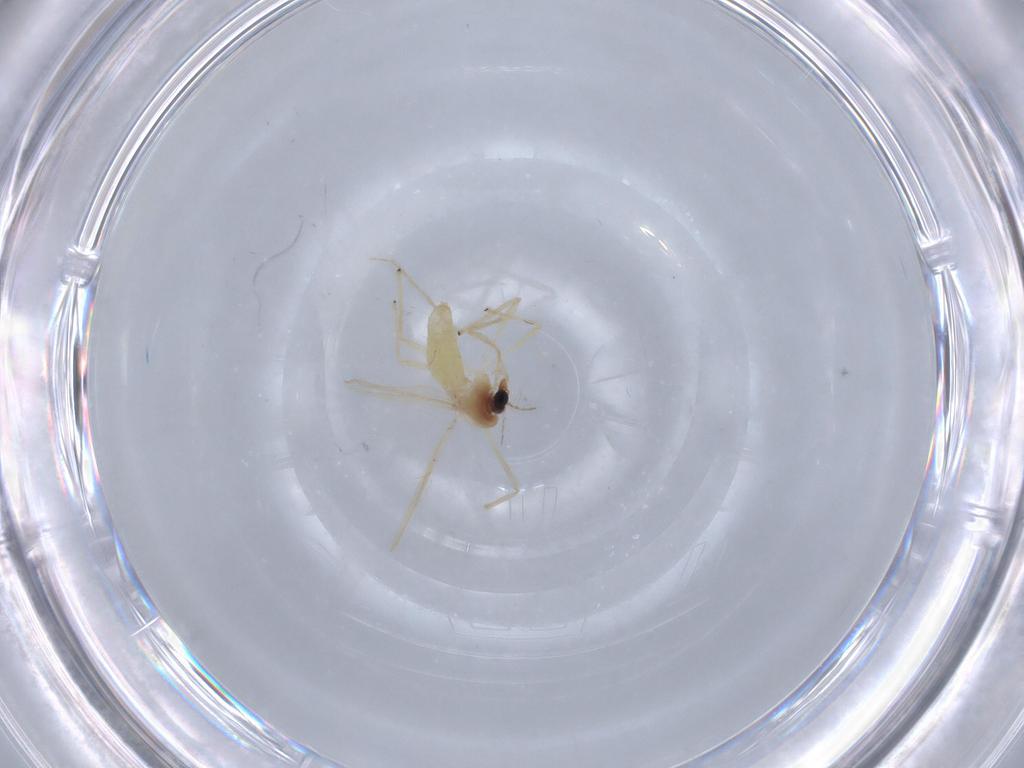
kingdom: Animalia
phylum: Arthropoda
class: Insecta
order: Diptera
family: Chironomidae
